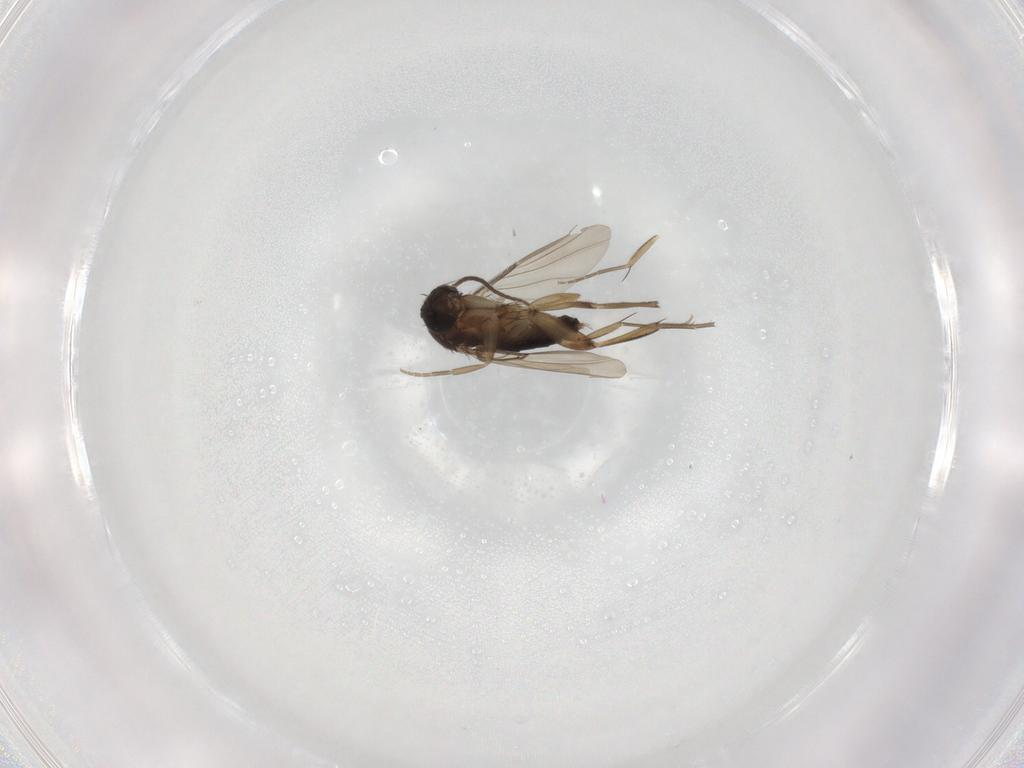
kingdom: Animalia
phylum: Arthropoda
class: Insecta
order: Diptera
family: Phoridae
